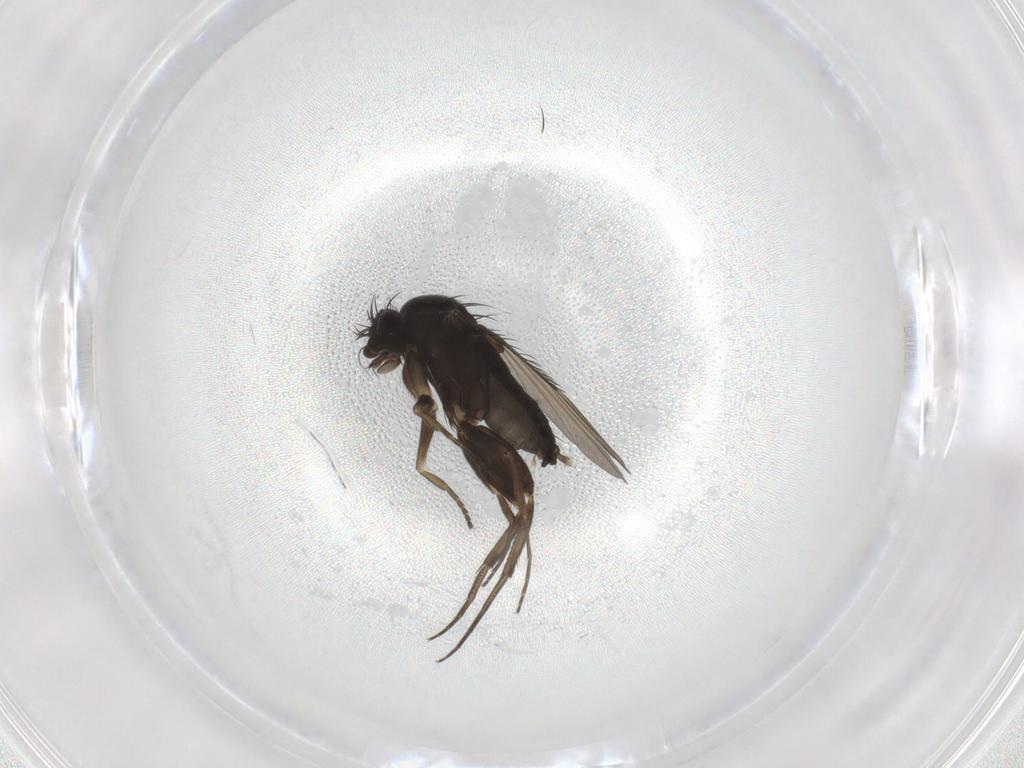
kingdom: Animalia
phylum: Arthropoda
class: Insecta
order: Diptera
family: Phoridae
